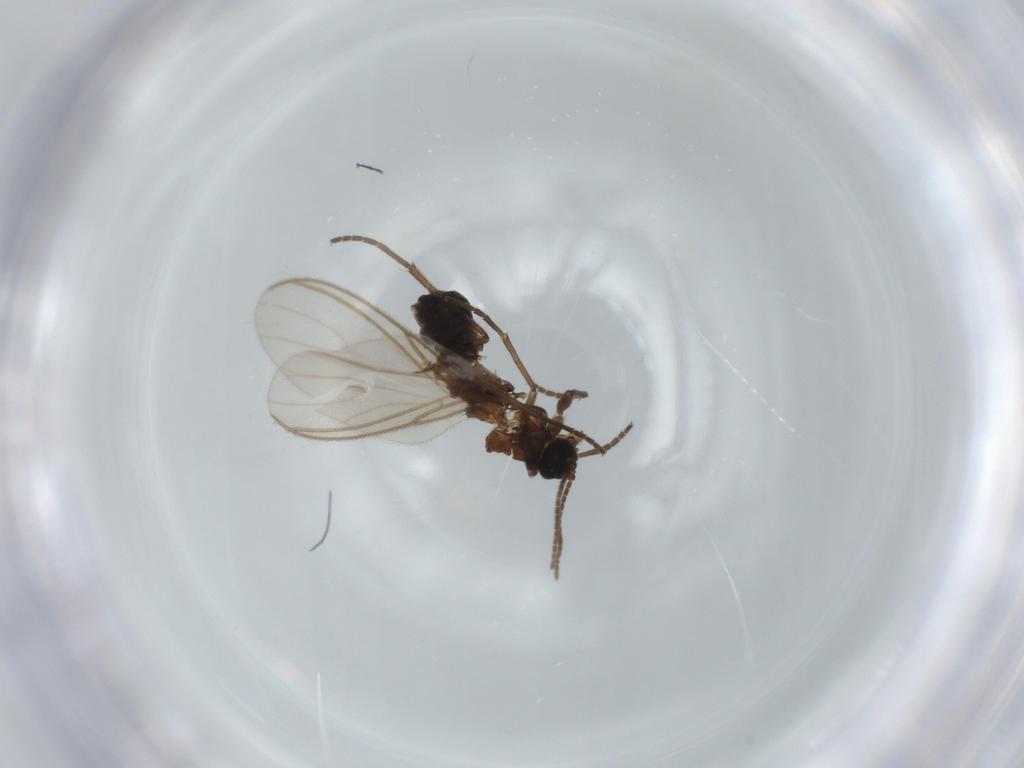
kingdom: Animalia
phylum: Arthropoda
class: Insecta
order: Diptera
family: Sciaridae
